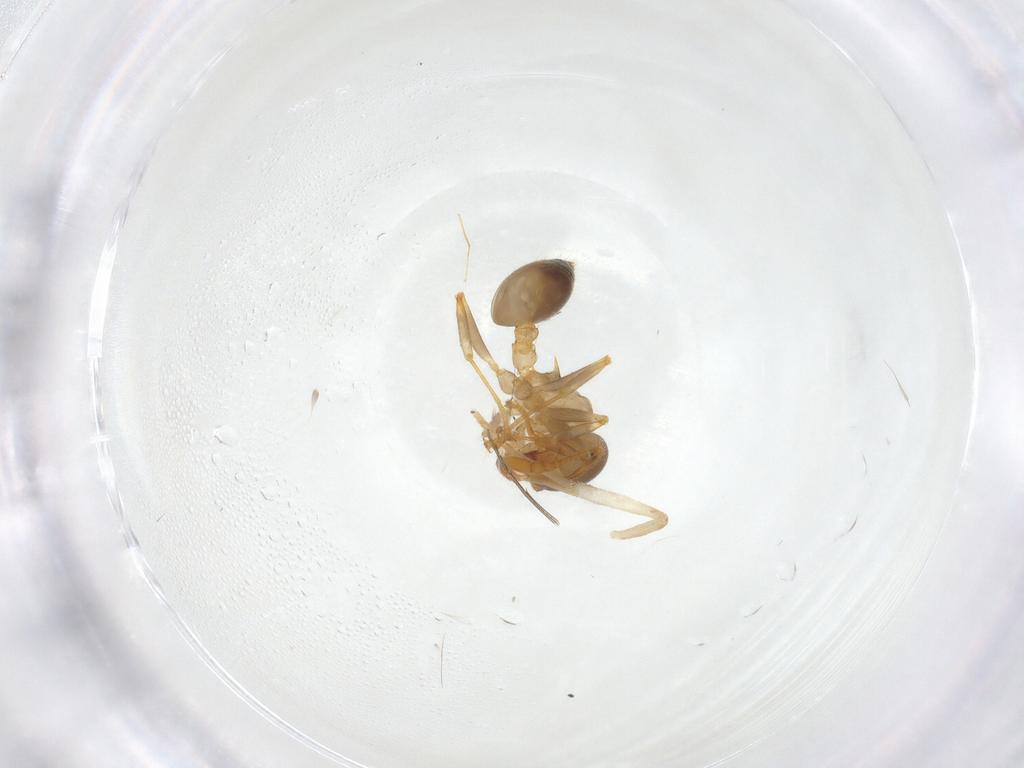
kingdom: Animalia
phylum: Arthropoda
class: Insecta
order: Hymenoptera
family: Formicidae
